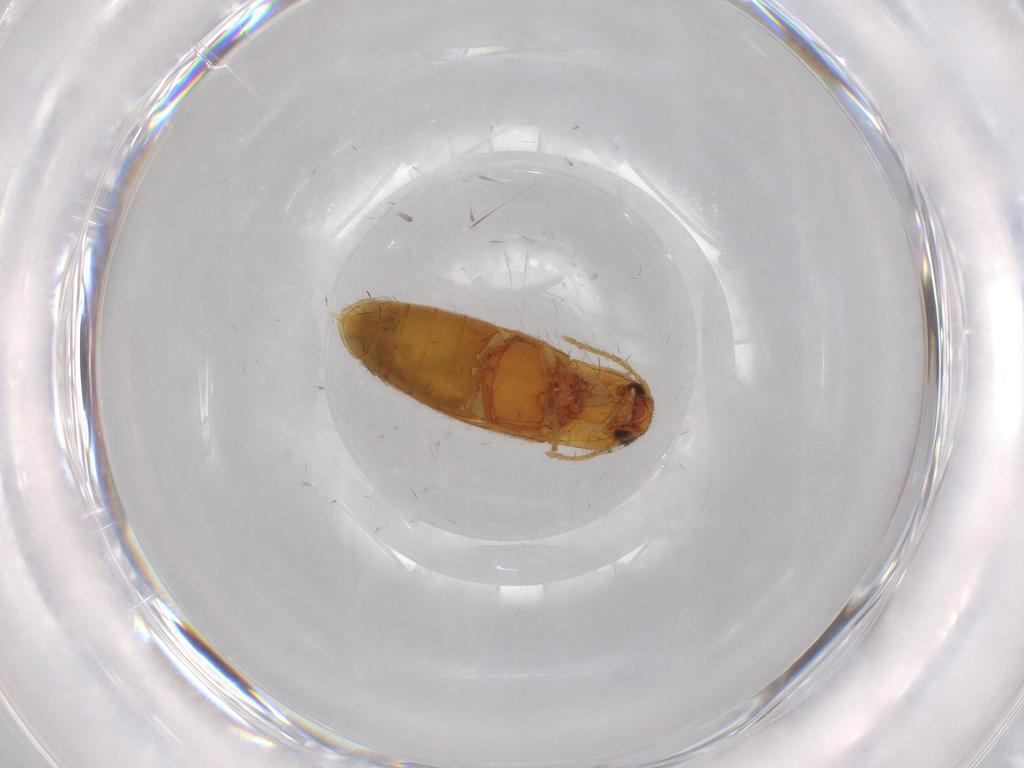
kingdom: Animalia
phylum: Arthropoda
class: Insecta
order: Coleoptera
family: Elateridae
